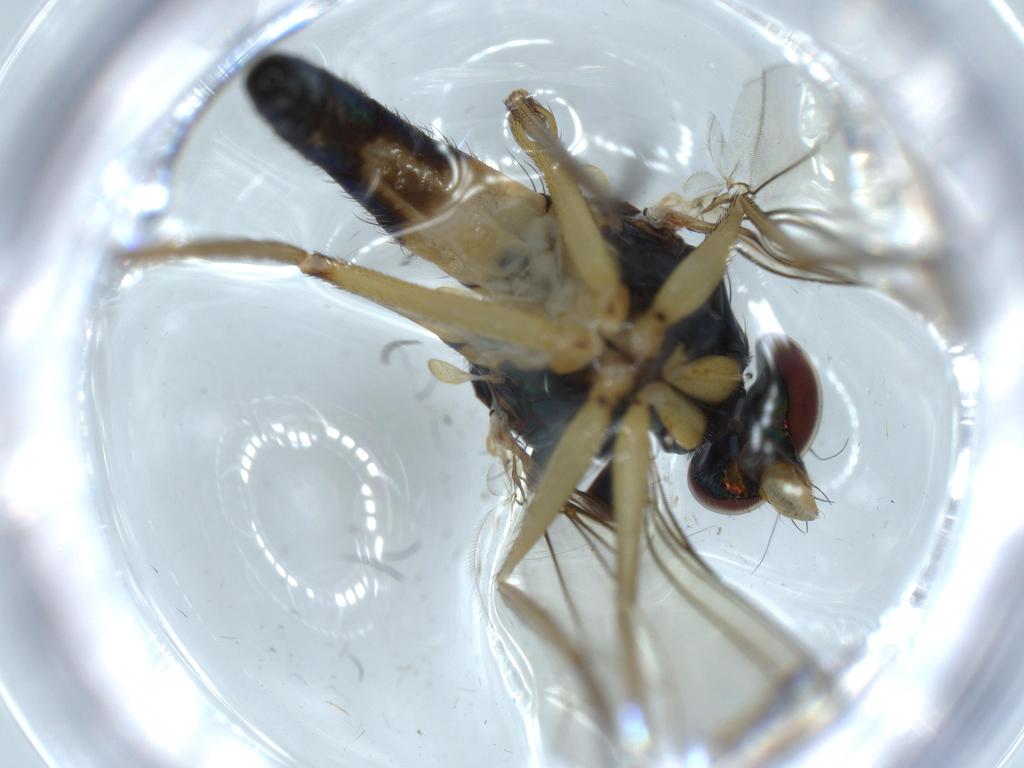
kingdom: Animalia
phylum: Arthropoda
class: Insecta
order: Diptera
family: Dolichopodidae
